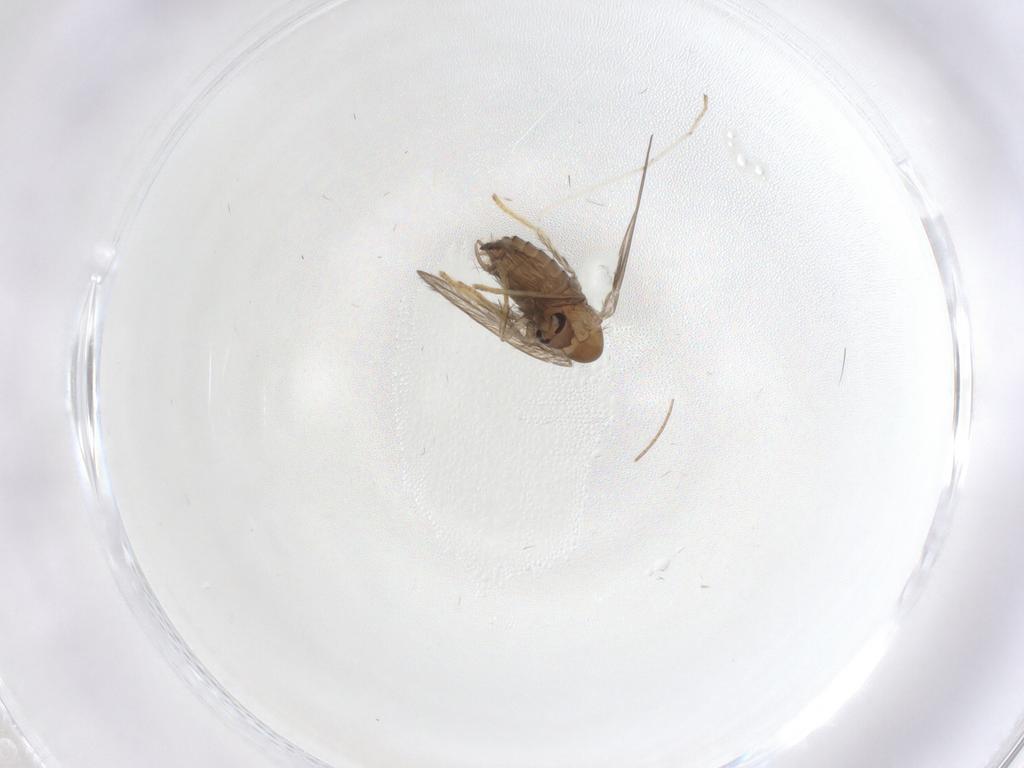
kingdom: Animalia
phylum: Arthropoda
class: Insecta
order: Diptera
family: Psychodidae
